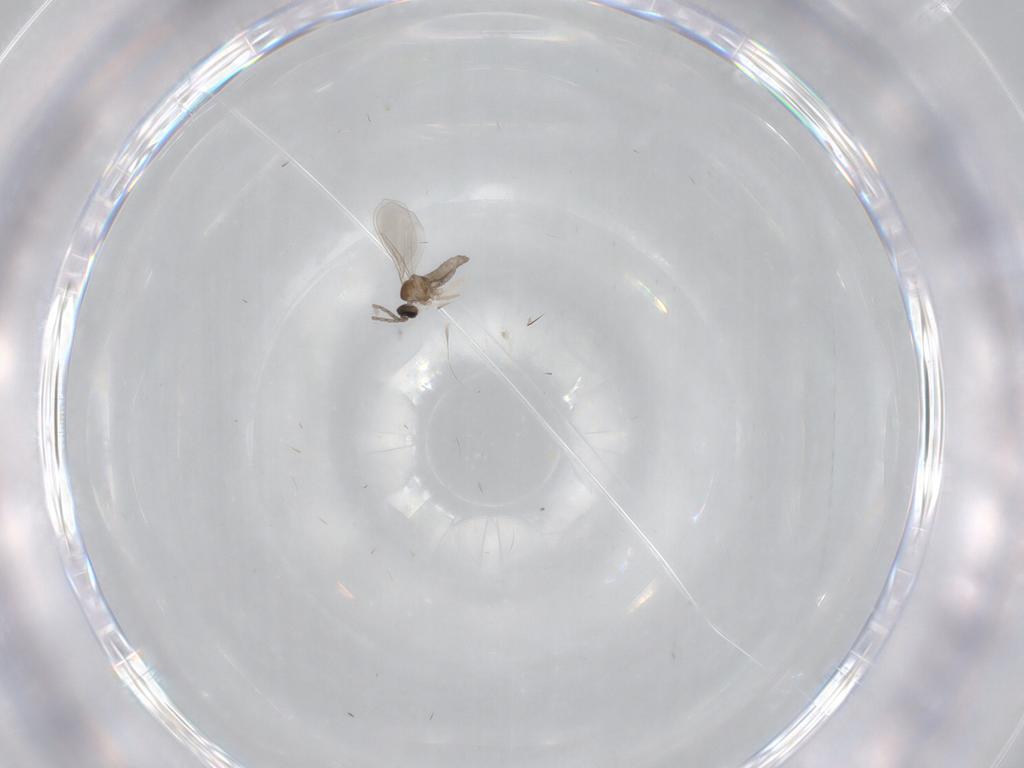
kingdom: Animalia
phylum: Arthropoda
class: Insecta
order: Diptera
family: Cecidomyiidae
